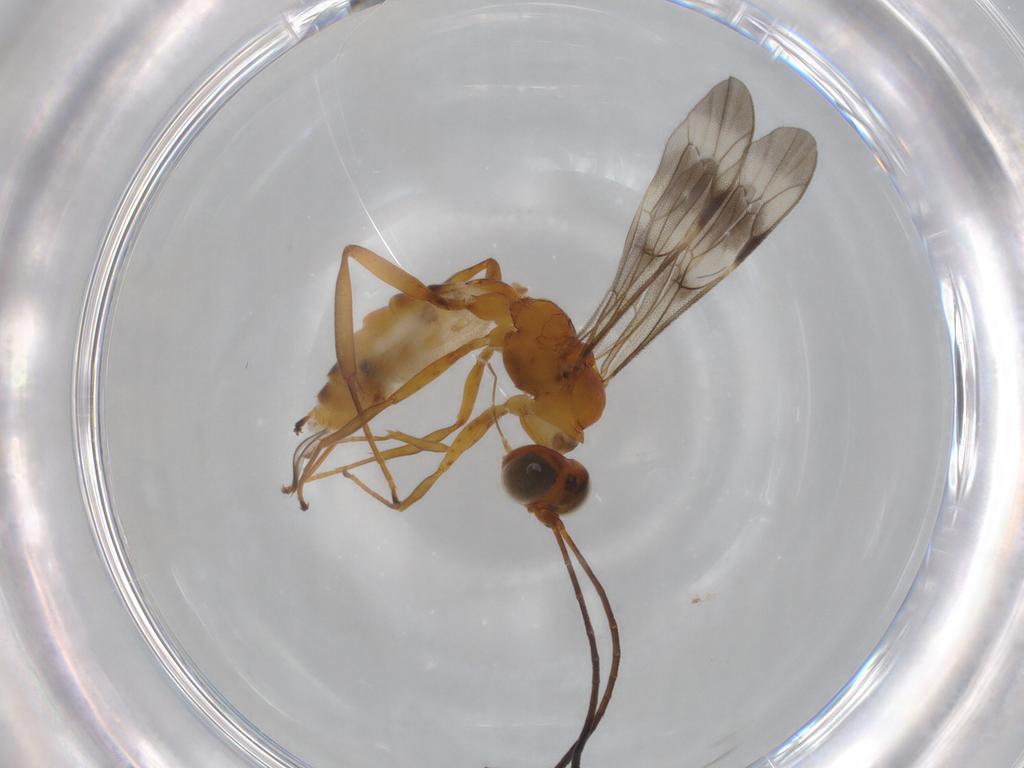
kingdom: Animalia
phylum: Arthropoda
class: Insecta
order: Hymenoptera
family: Ichneumonidae
